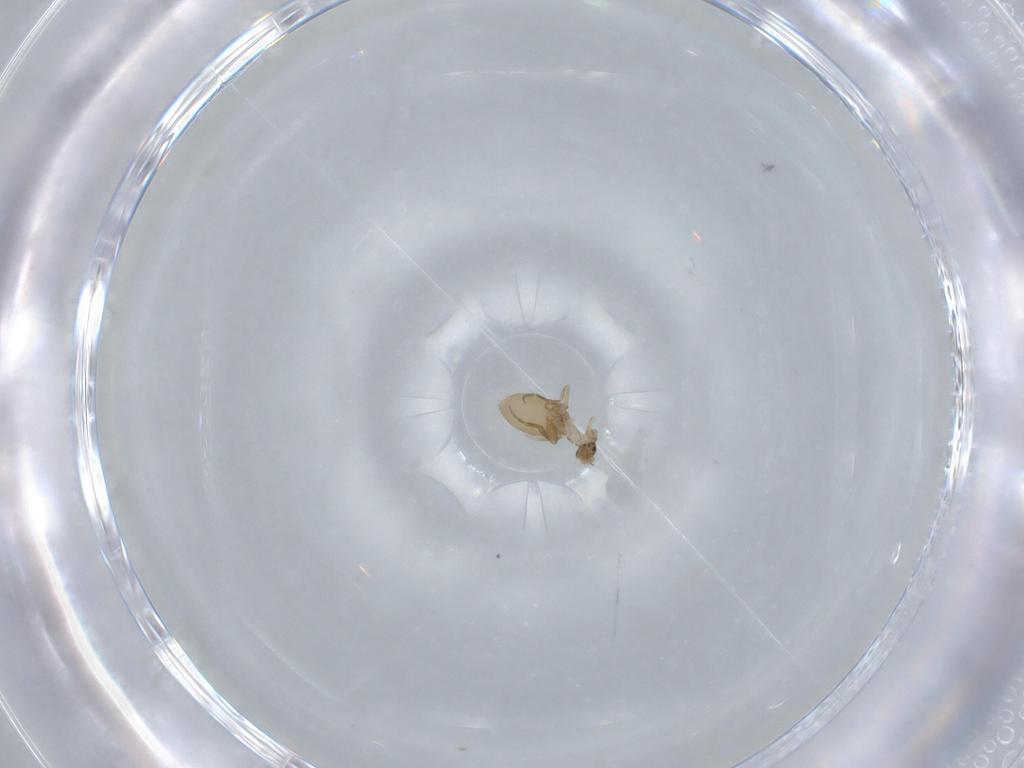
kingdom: Animalia
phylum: Arthropoda
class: Insecta
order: Diptera
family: Phoridae
